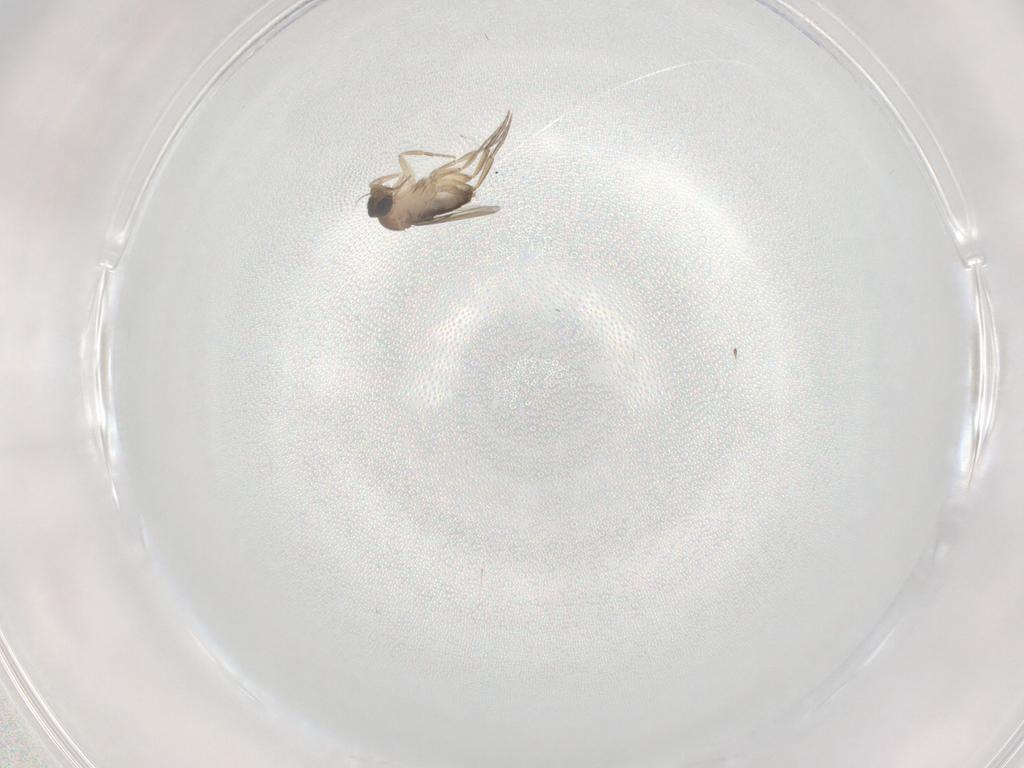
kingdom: Animalia
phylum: Arthropoda
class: Insecta
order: Diptera
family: Phoridae
